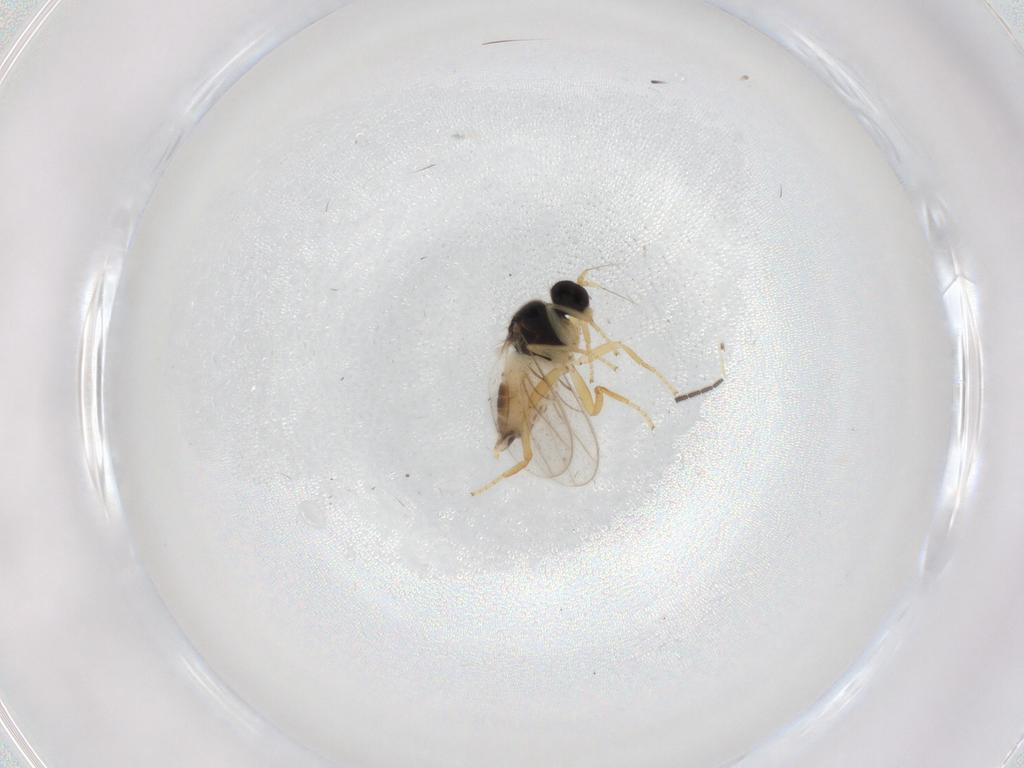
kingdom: Animalia
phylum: Arthropoda
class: Insecta
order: Diptera
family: Hybotidae
